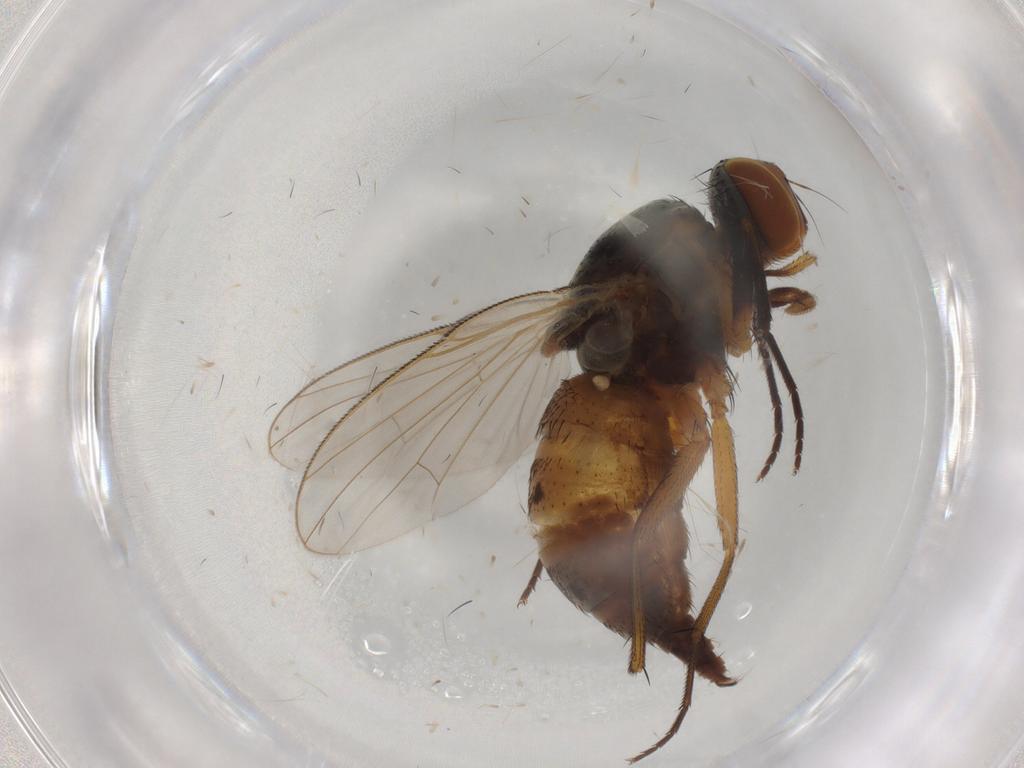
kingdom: Animalia
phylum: Arthropoda
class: Insecta
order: Diptera
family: Muscidae
